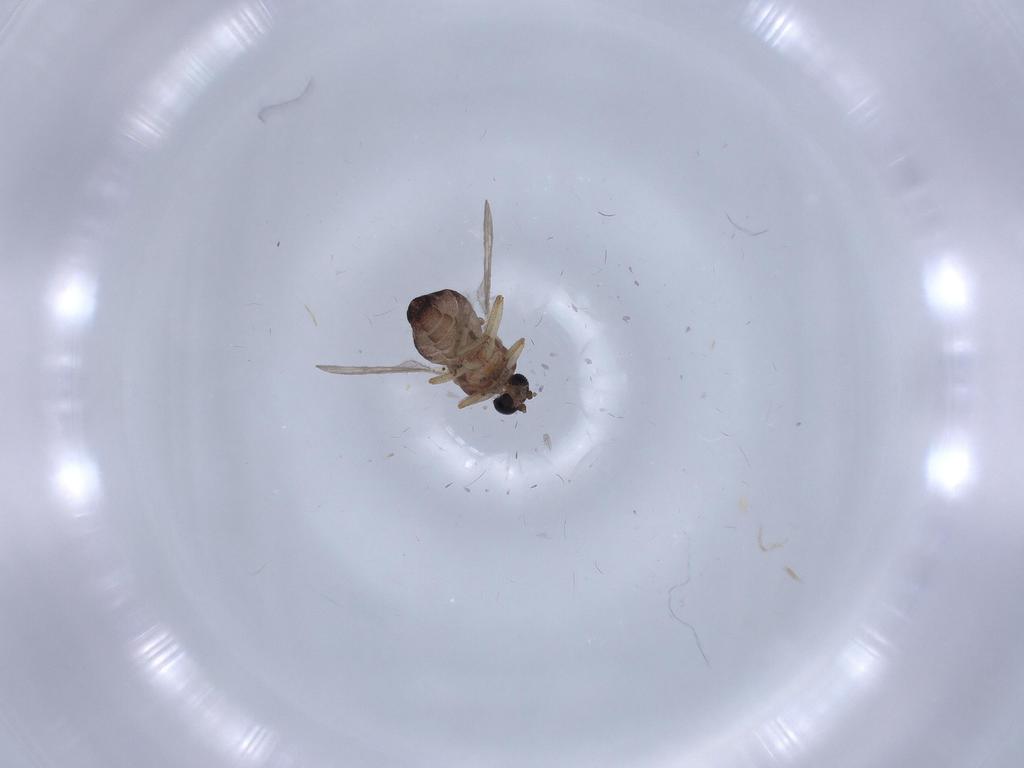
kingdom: Animalia
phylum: Arthropoda
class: Insecta
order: Diptera
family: Ceratopogonidae
